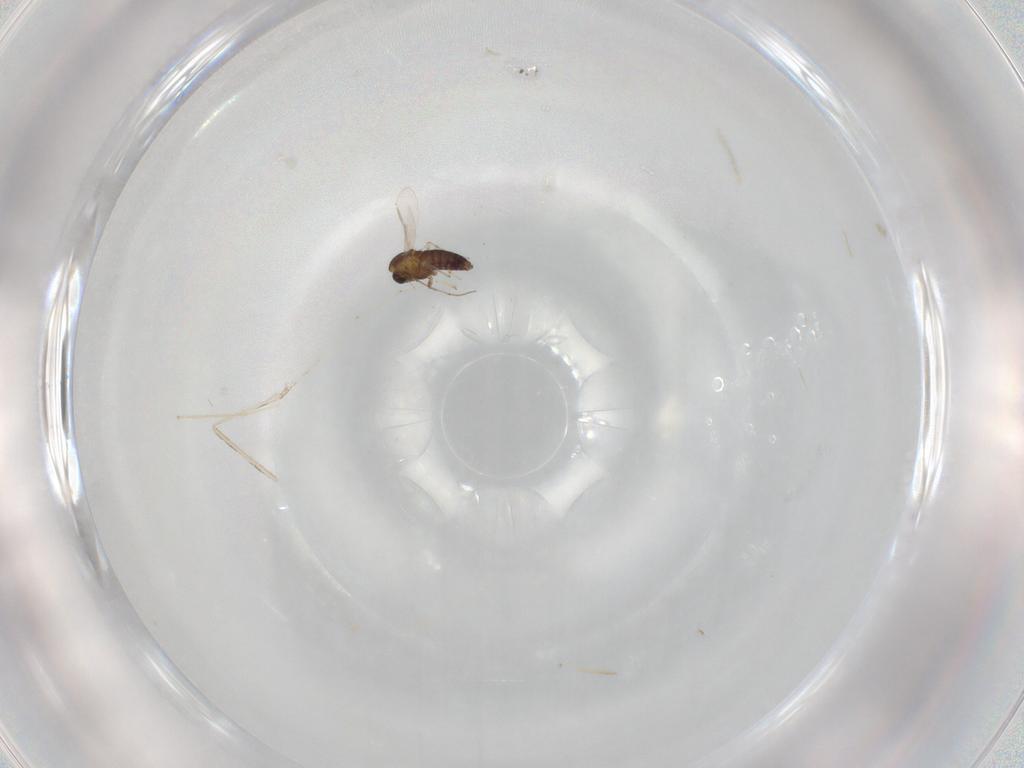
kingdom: Animalia
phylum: Arthropoda
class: Insecta
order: Diptera
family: Chironomidae
